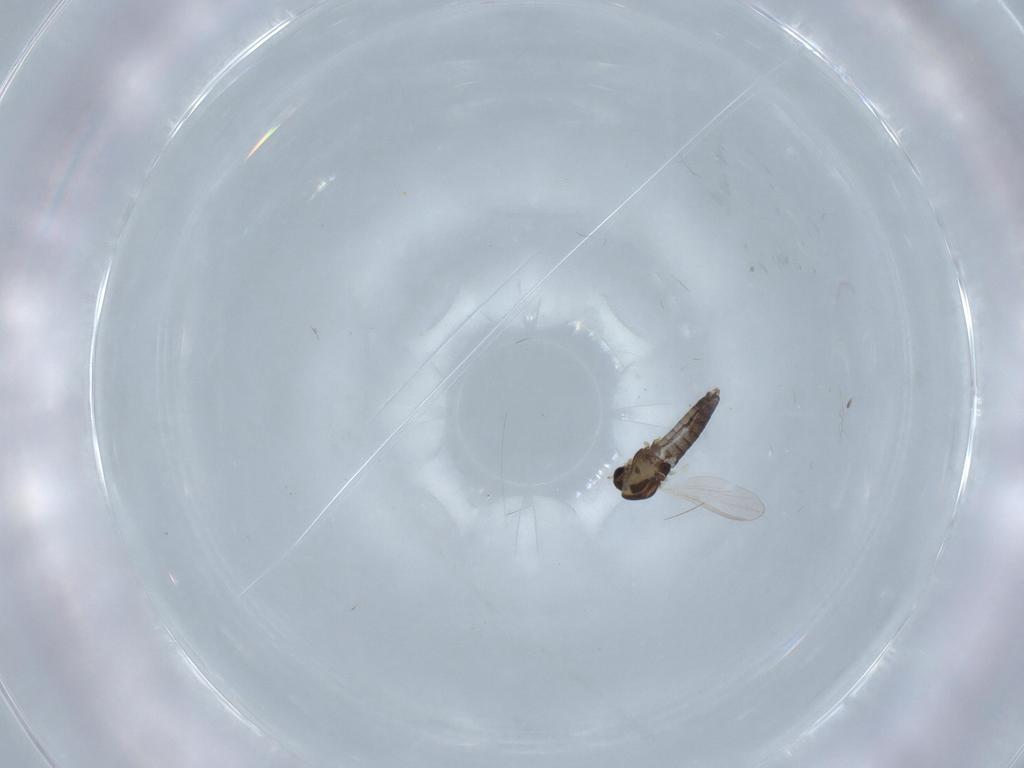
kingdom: Animalia
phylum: Arthropoda
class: Insecta
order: Diptera
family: Chironomidae
